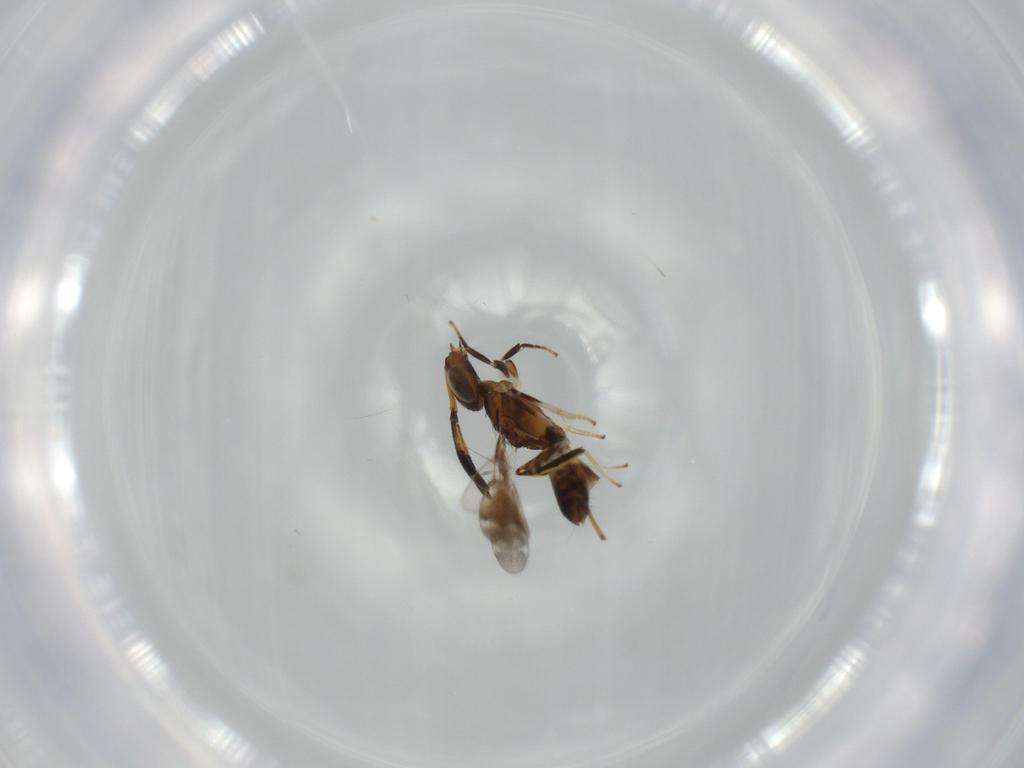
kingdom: Animalia
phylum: Arthropoda
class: Insecta
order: Hymenoptera
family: Eupelmidae
